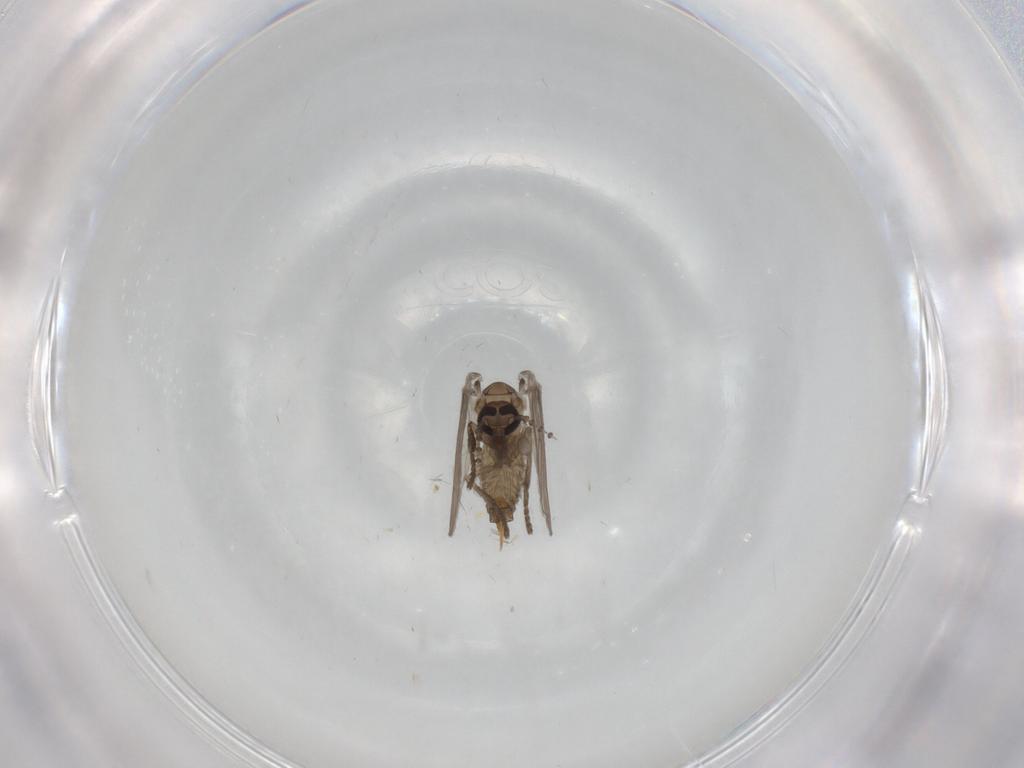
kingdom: Animalia
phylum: Arthropoda
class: Insecta
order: Diptera
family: Psychodidae
